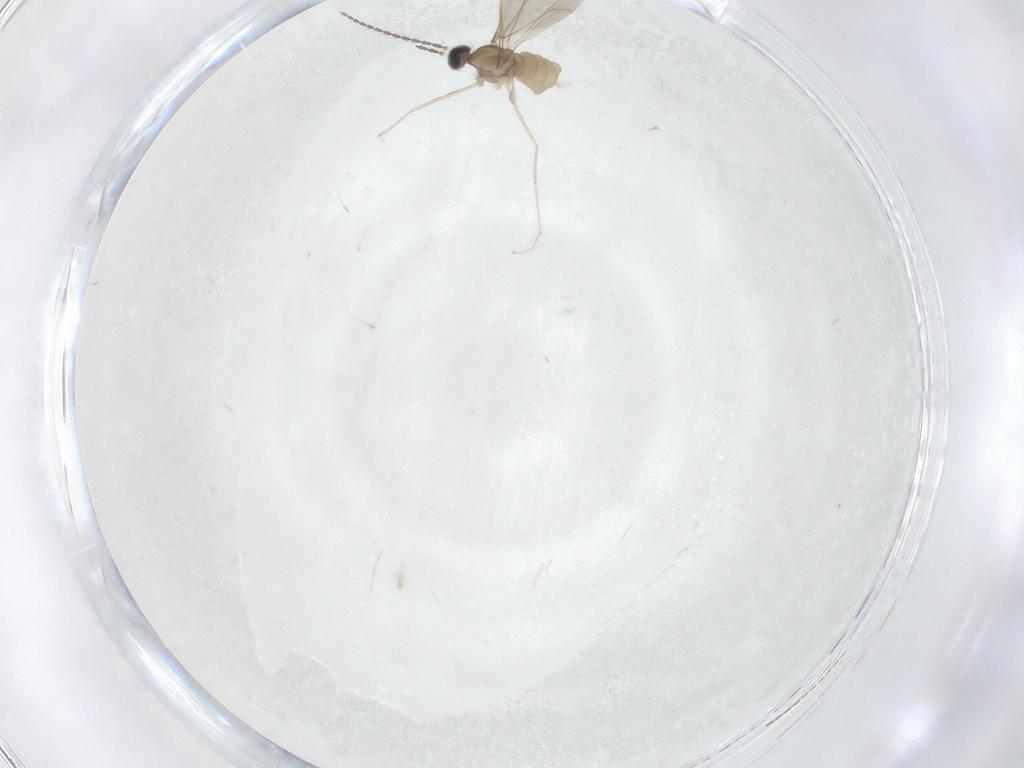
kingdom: Animalia
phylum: Arthropoda
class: Insecta
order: Diptera
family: Cecidomyiidae
